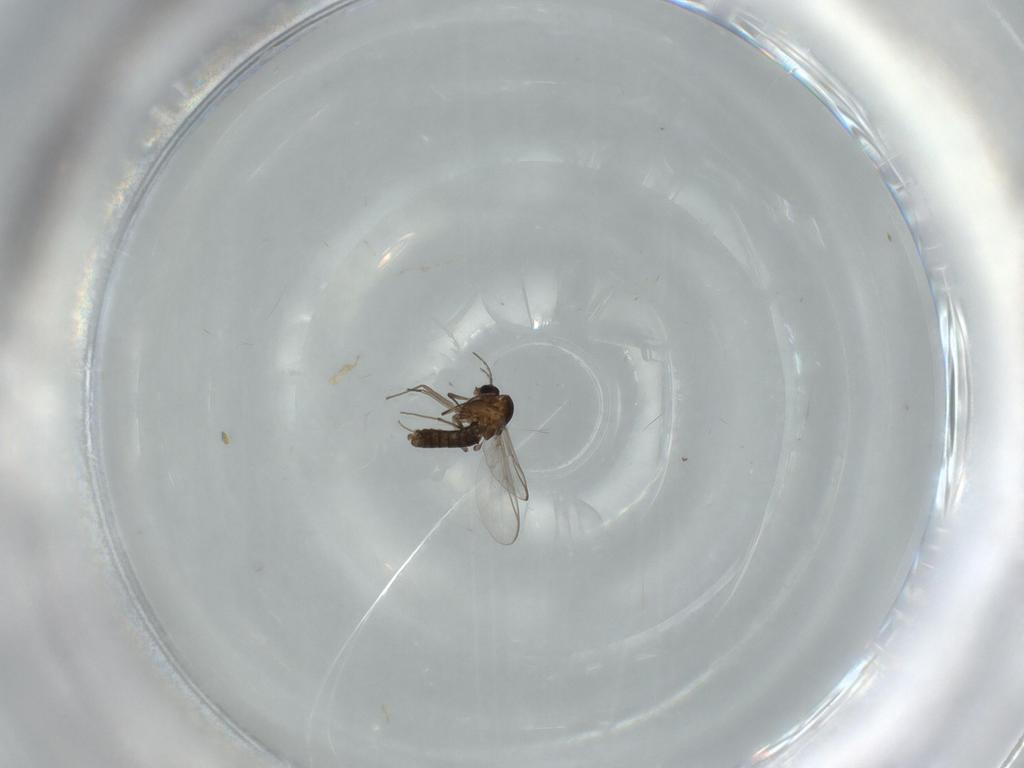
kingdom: Animalia
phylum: Arthropoda
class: Insecta
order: Diptera
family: Chironomidae
